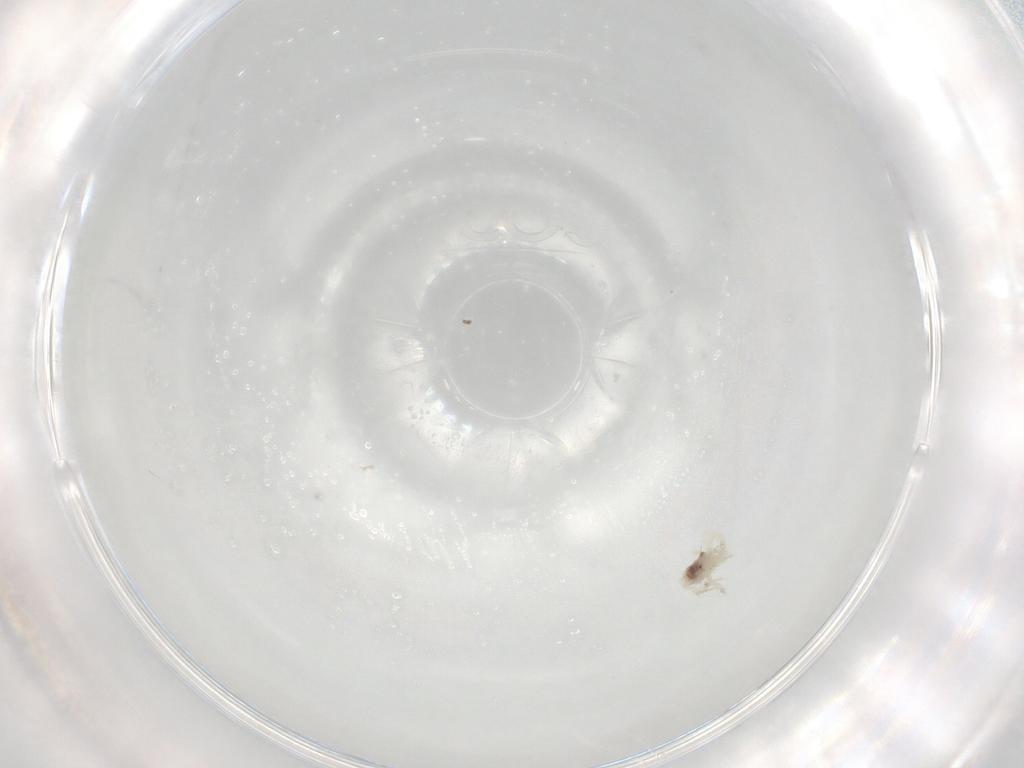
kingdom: Animalia
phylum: Arthropoda
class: Arachnida
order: Trombidiformes
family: Anystidae
